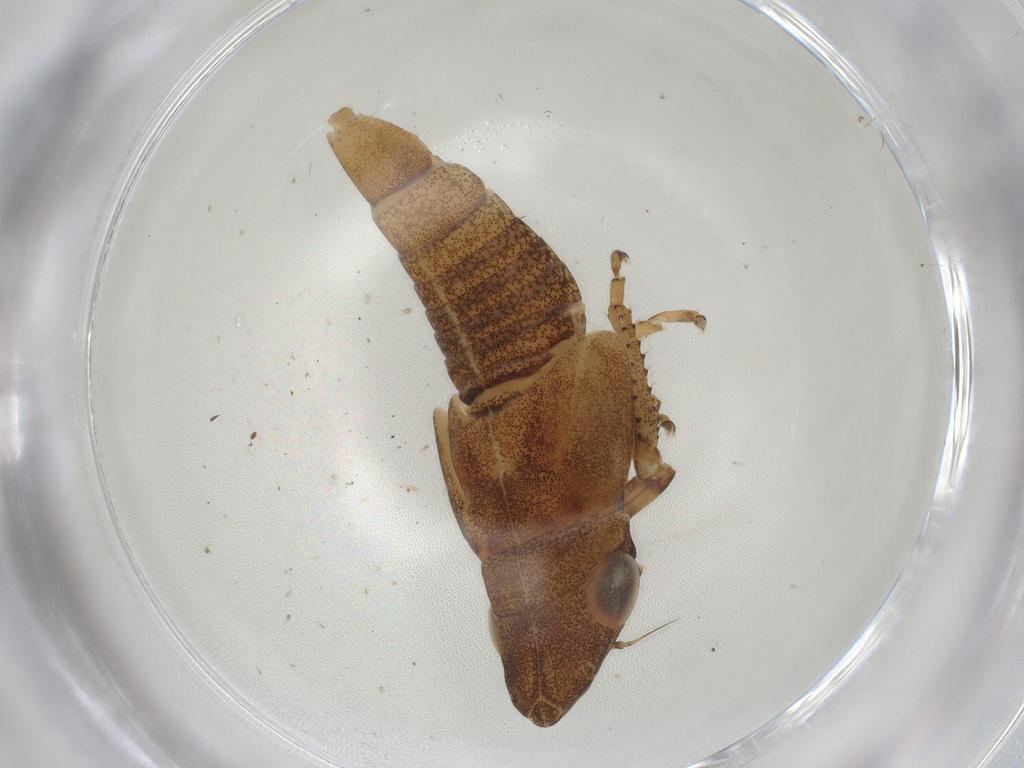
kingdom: Animalia
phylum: Arthropoda
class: Insecta
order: Hemiptera
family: Cicadellidae
